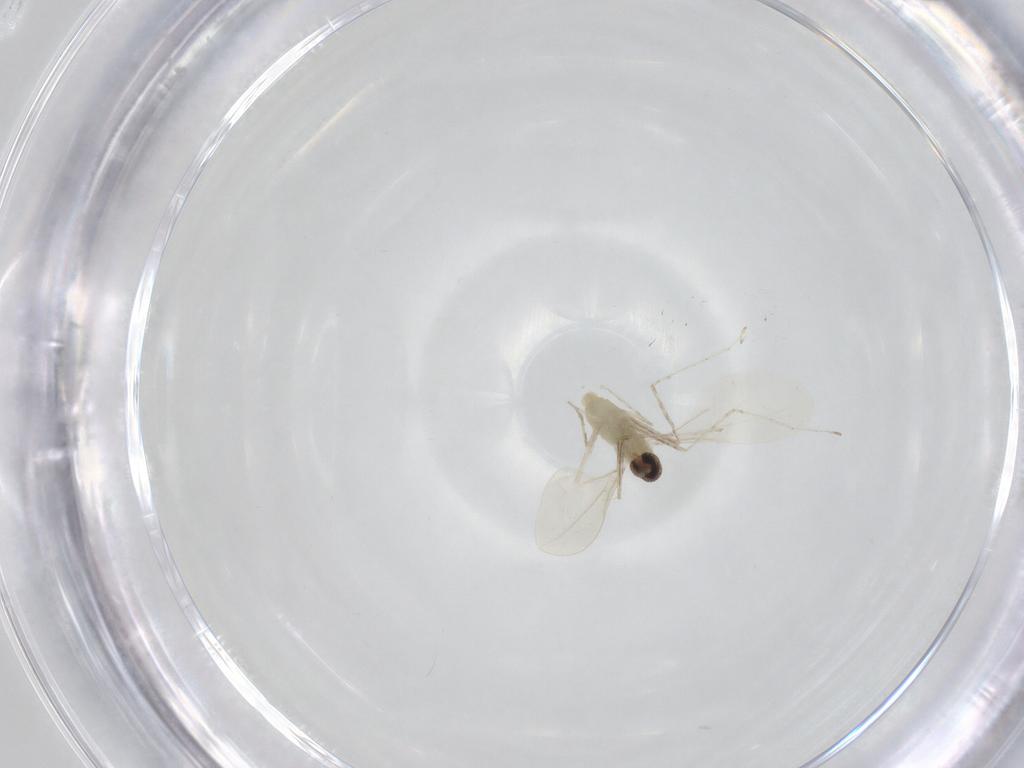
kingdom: Animalia
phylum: Arthropoda
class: Insecta
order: Diptera
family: Cecidomyiidae
